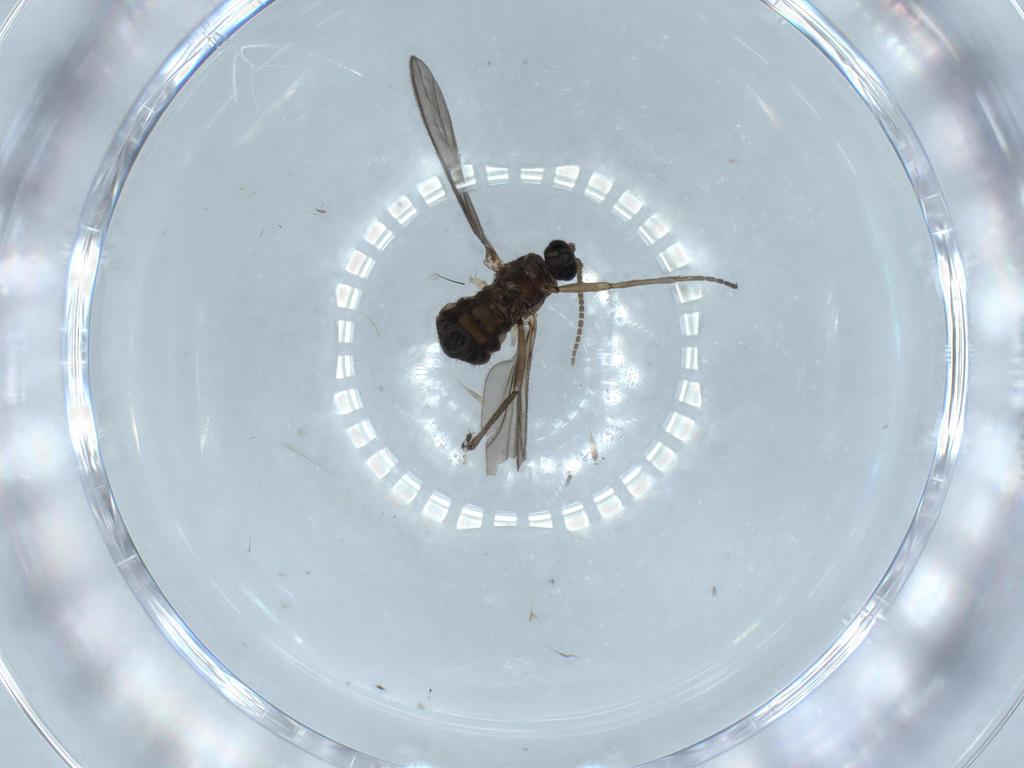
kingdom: Animalia
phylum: Arthropoda
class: Insecta
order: Diptera
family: Sciaridae
